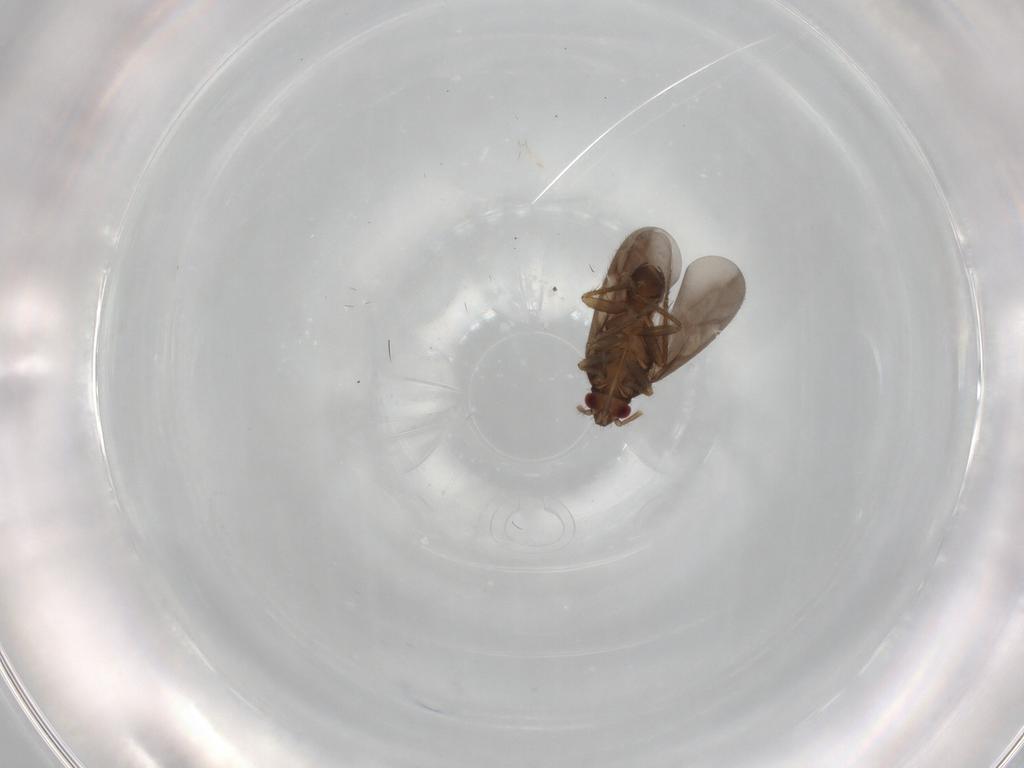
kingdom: Animalia
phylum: Arthropoda
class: Insecta
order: Hemiptera
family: Ceratocombidae
